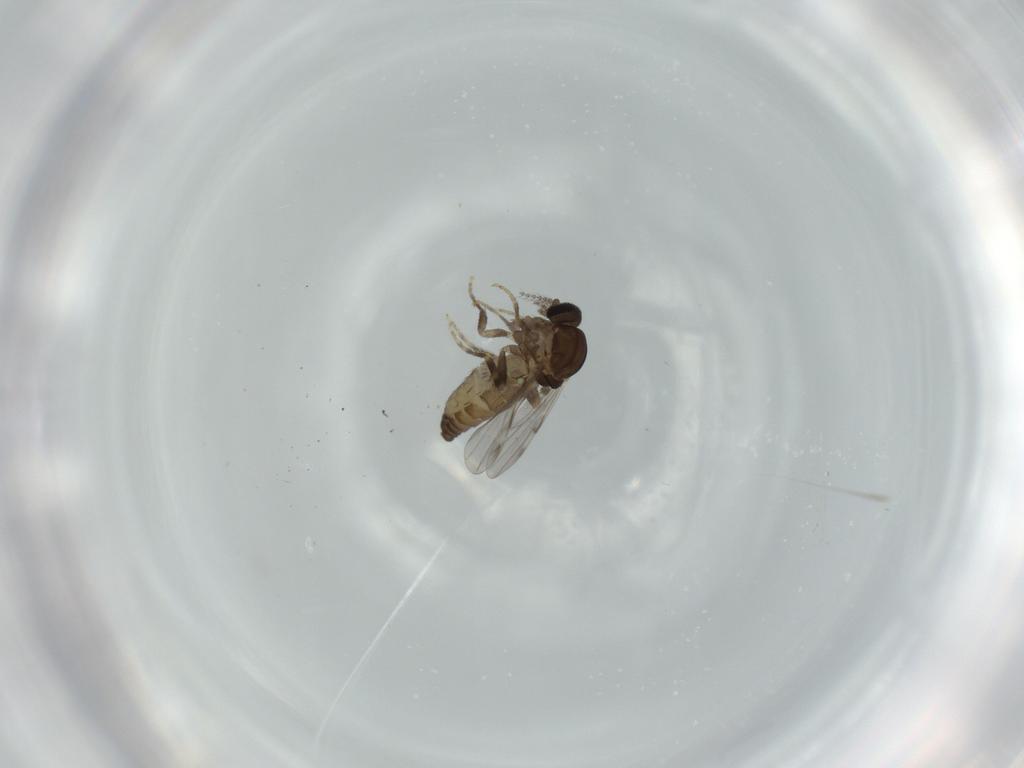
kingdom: Animalia
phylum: Arthropoda
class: Insecta
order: Diptera
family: Ceratopogonidae
